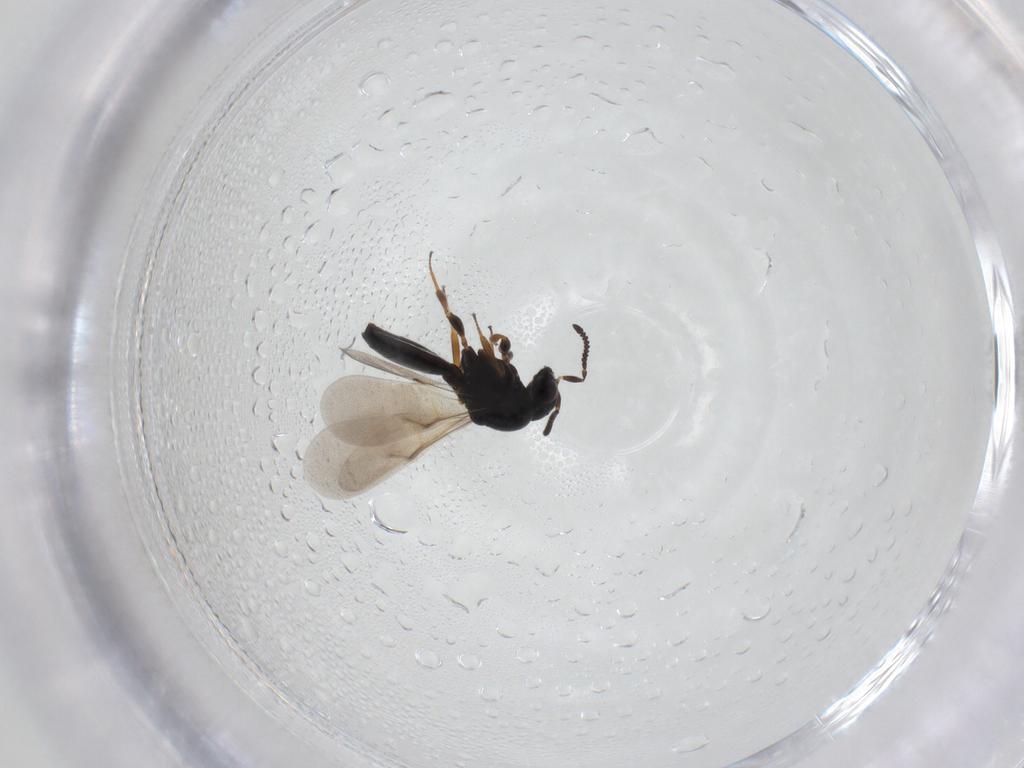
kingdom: Animalia
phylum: Arthropoda
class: Insecta
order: Hymenoptera
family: Scelionidae
